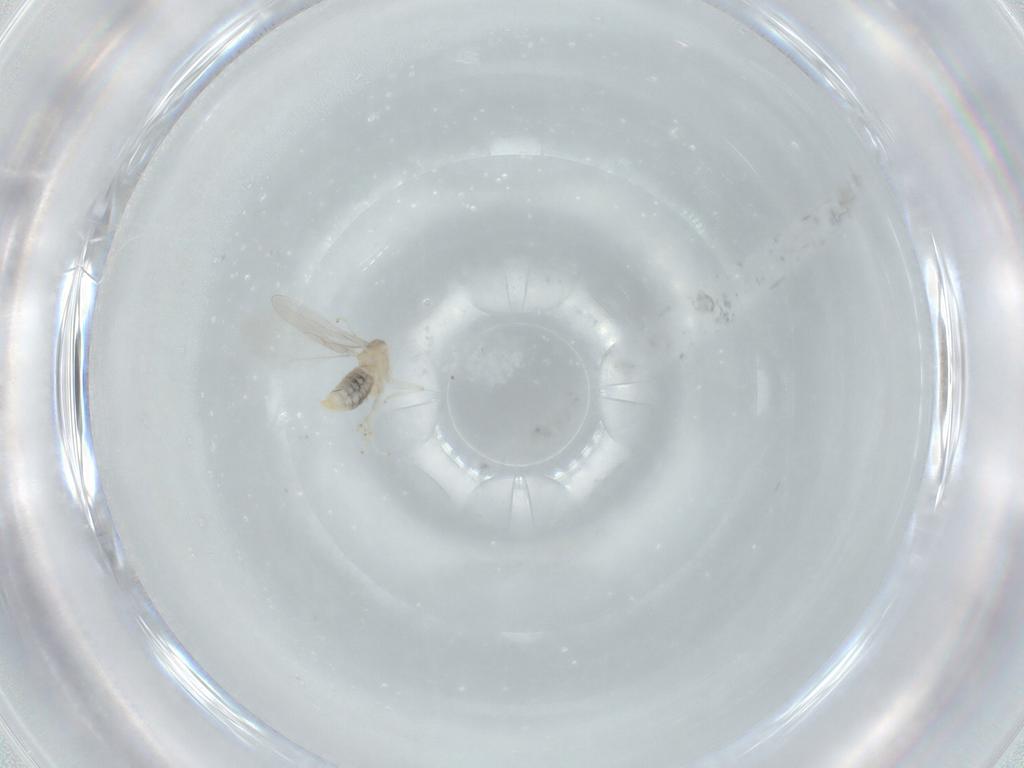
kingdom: Animalia
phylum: Arthropoda
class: Insecta
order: Diptera
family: Cecidomyiidae
